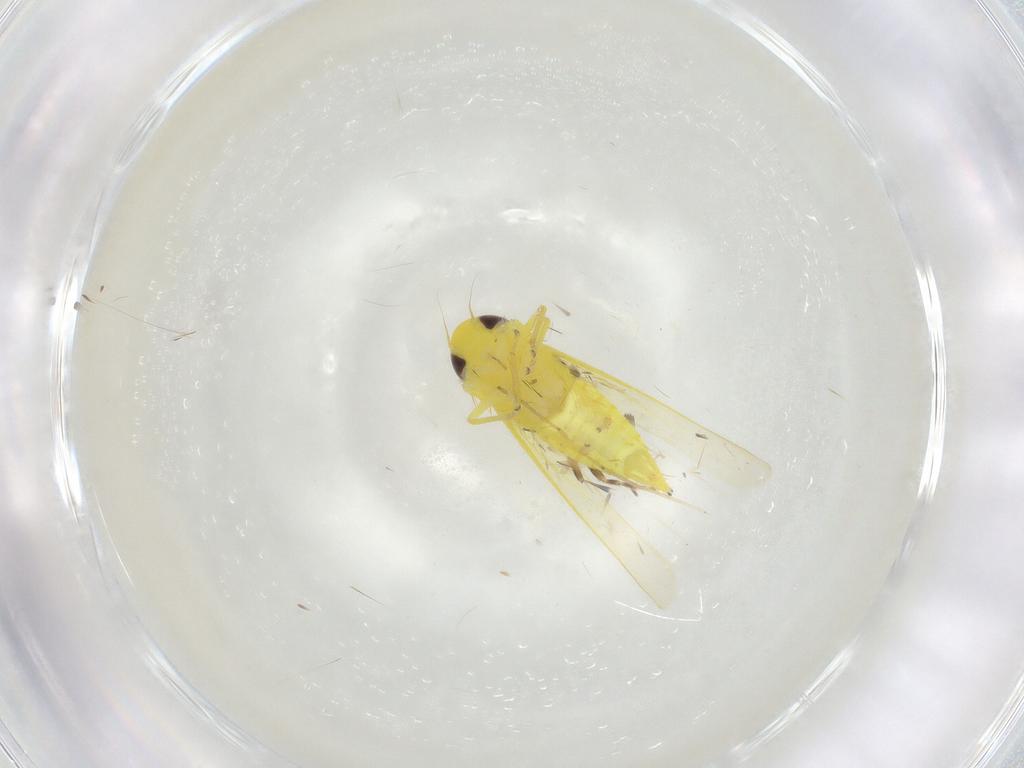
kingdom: Animalia
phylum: Arthropoda
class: Insecta
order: Hemiptera
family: Cicadellidae
